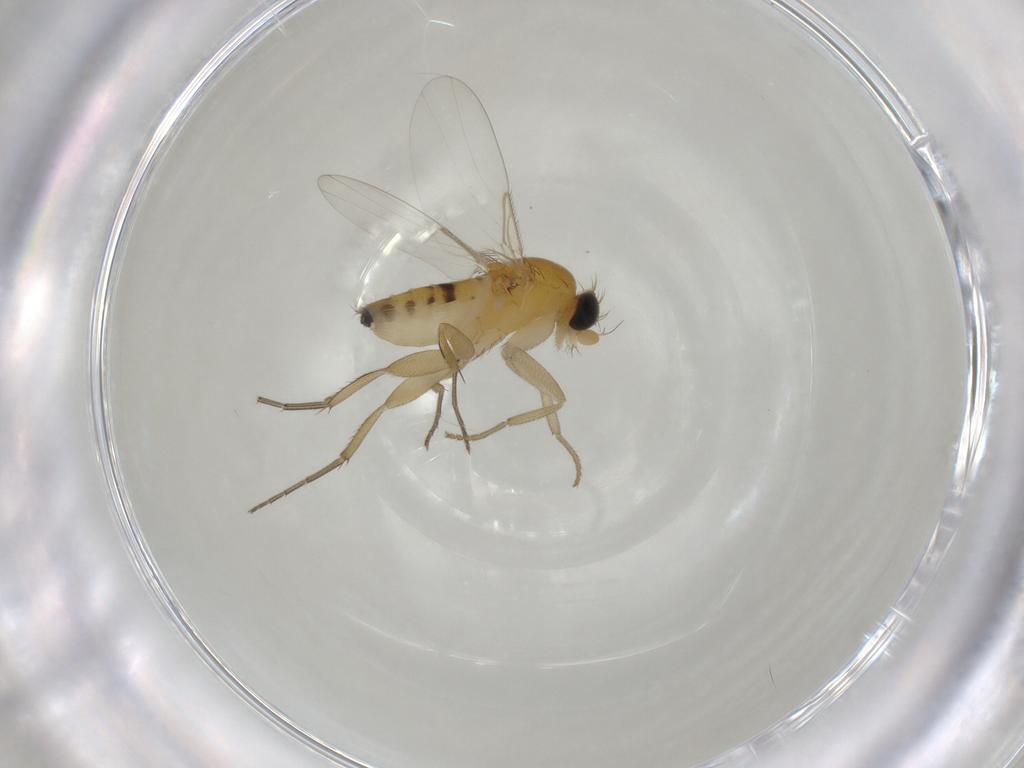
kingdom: Animalia
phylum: Arthropoda
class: Insecta
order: Diptera
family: Phoridae
